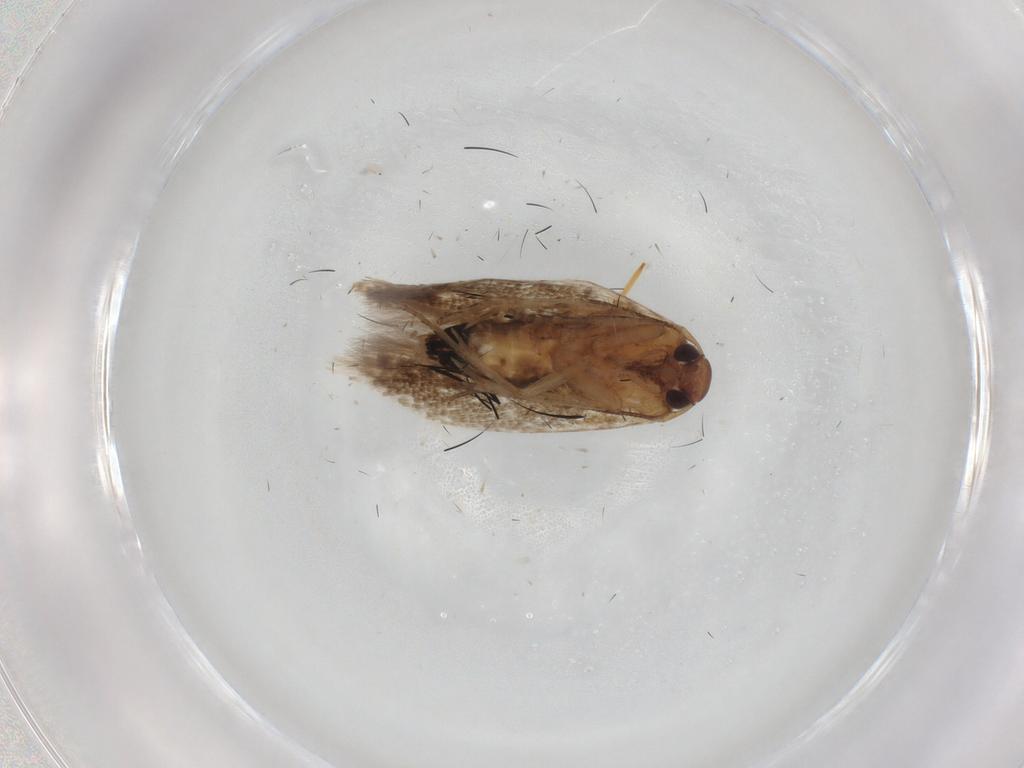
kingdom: Animalia
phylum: Arthropoda
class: Insecta
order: Lepidoptera
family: Cosmopterigidae
